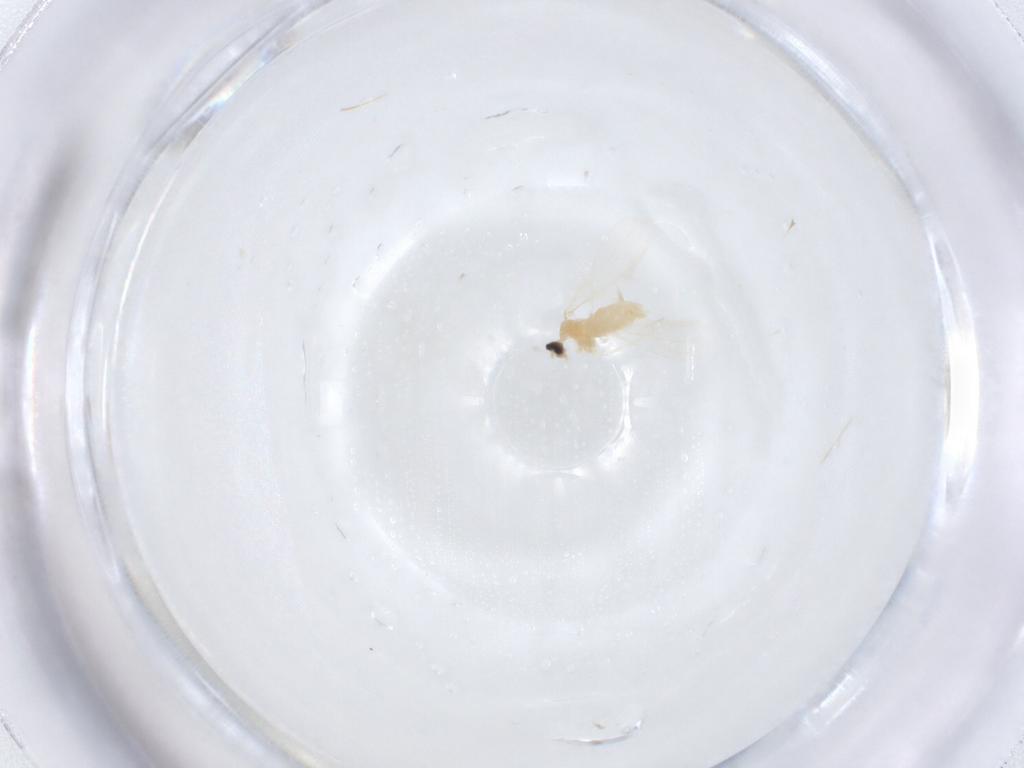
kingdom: Animalia
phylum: Arthropoda
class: Insecta
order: Diptera
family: Cecidomyiidae
